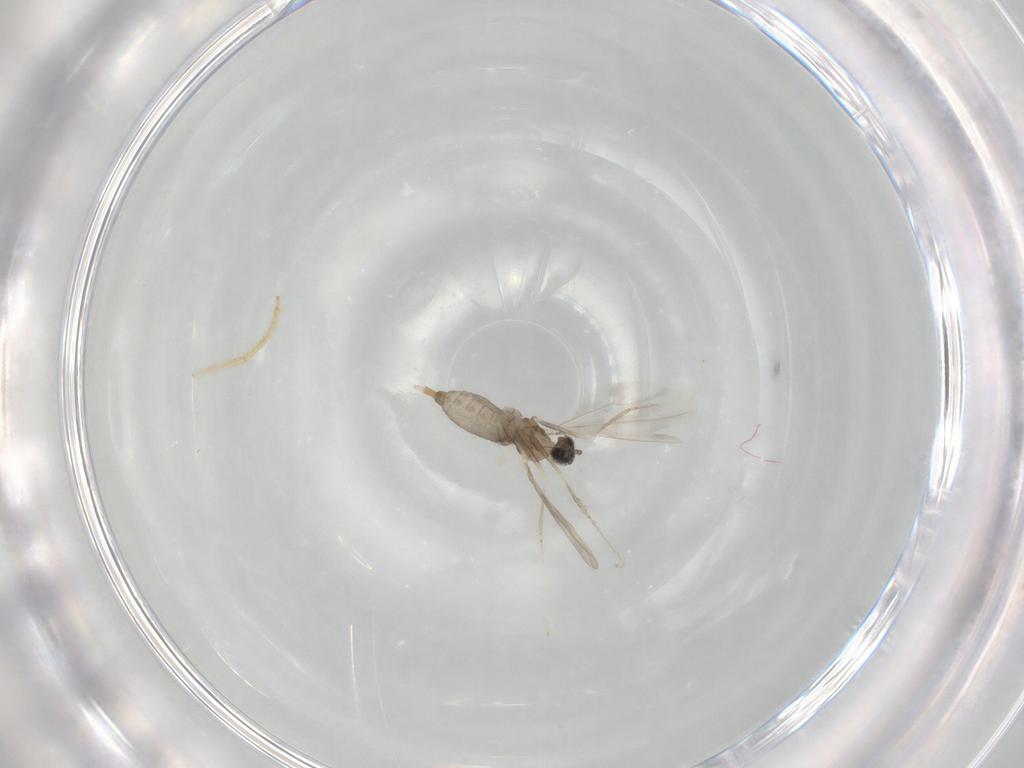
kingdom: Animalia
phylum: Arthropoda
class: Insecta
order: Diptera
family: Cecidomyiidae
